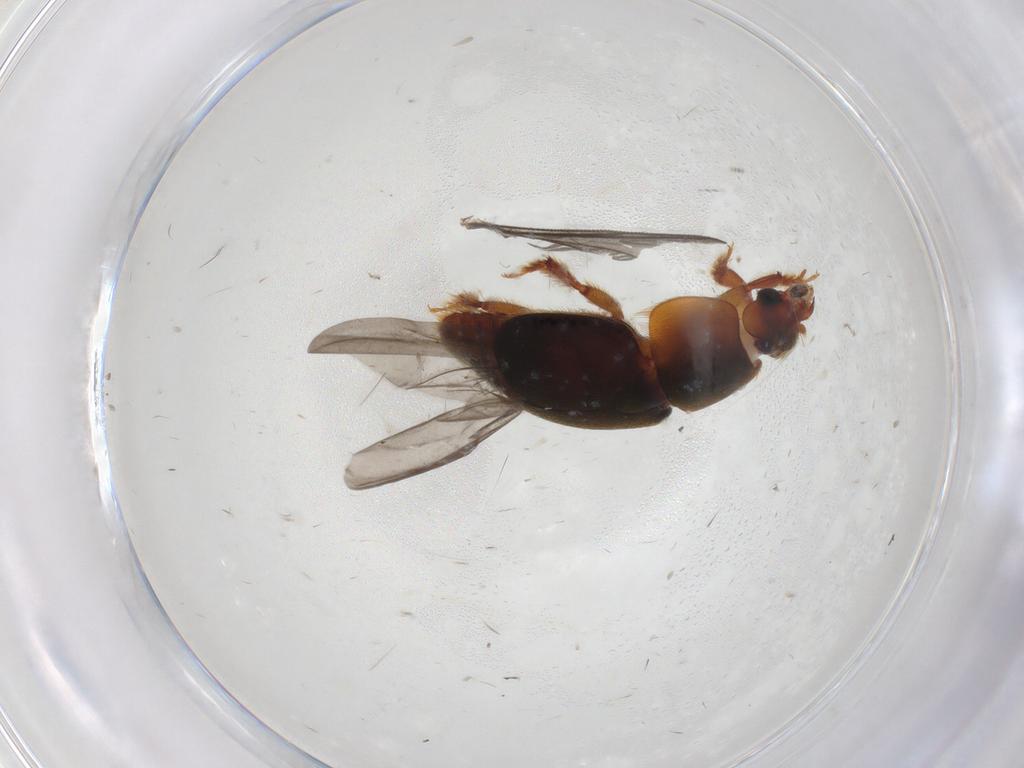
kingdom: Animalia
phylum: Arthropoda
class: Insecta
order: Coleoptera
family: Nitidulidae
